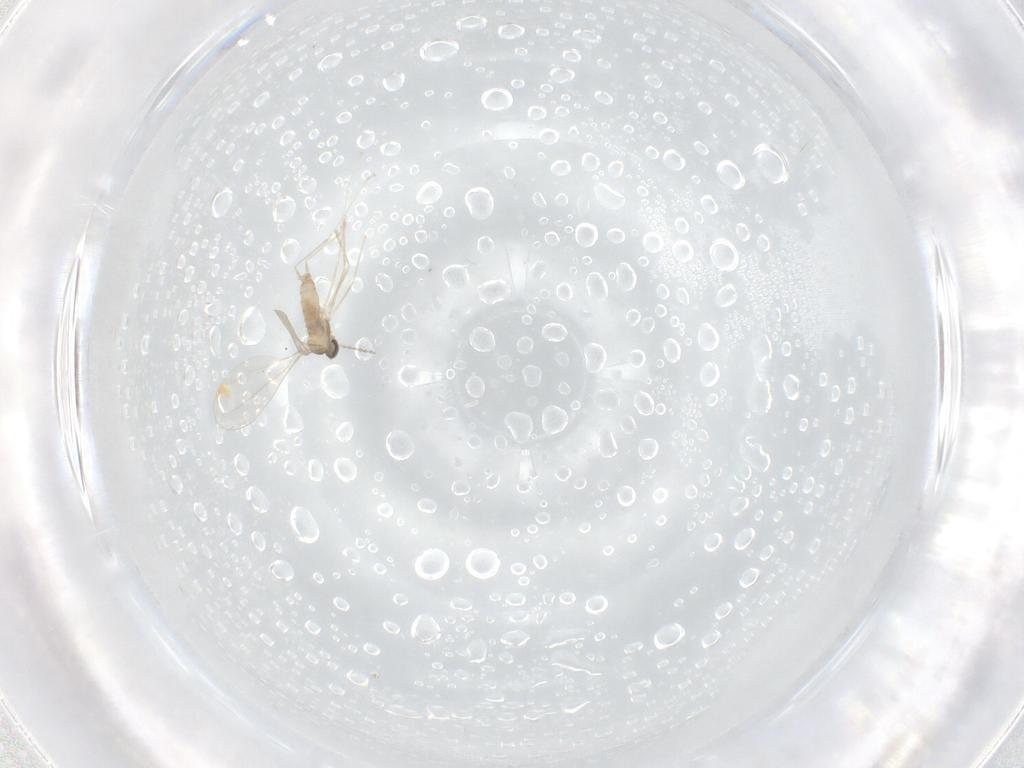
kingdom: Animalia
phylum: Arthropoda
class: Insecta
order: Diptera
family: Cecidomyiidae
